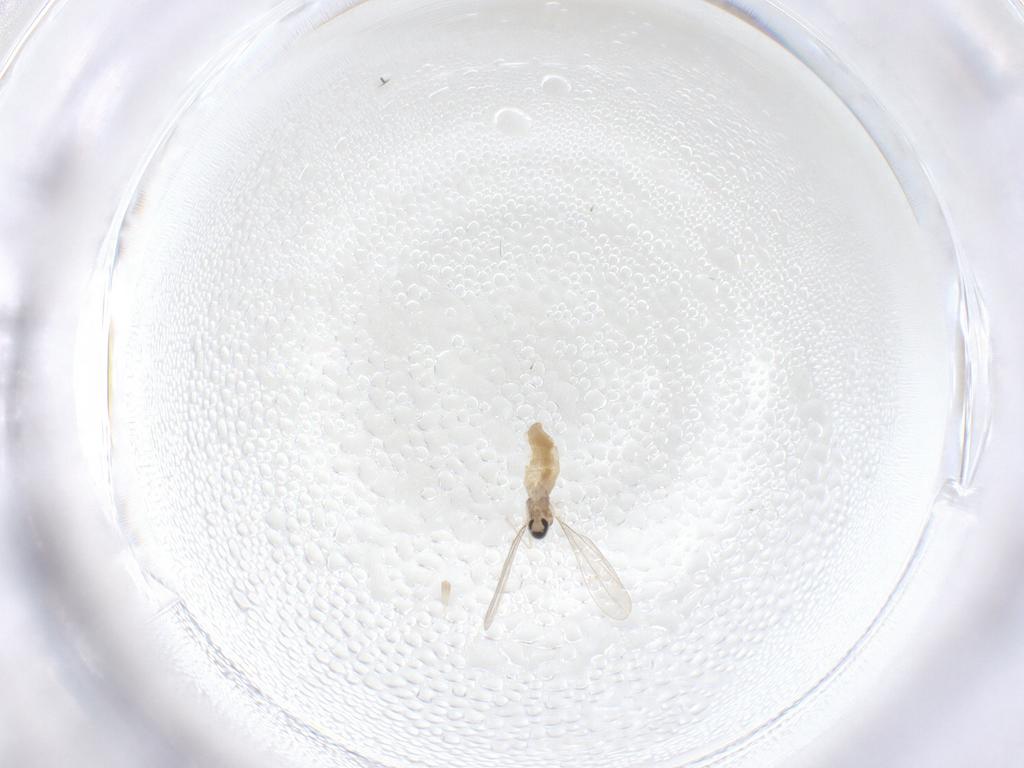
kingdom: Animalia
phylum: Arthropoda
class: Insecta
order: Diptera
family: Cecidomyiidae
